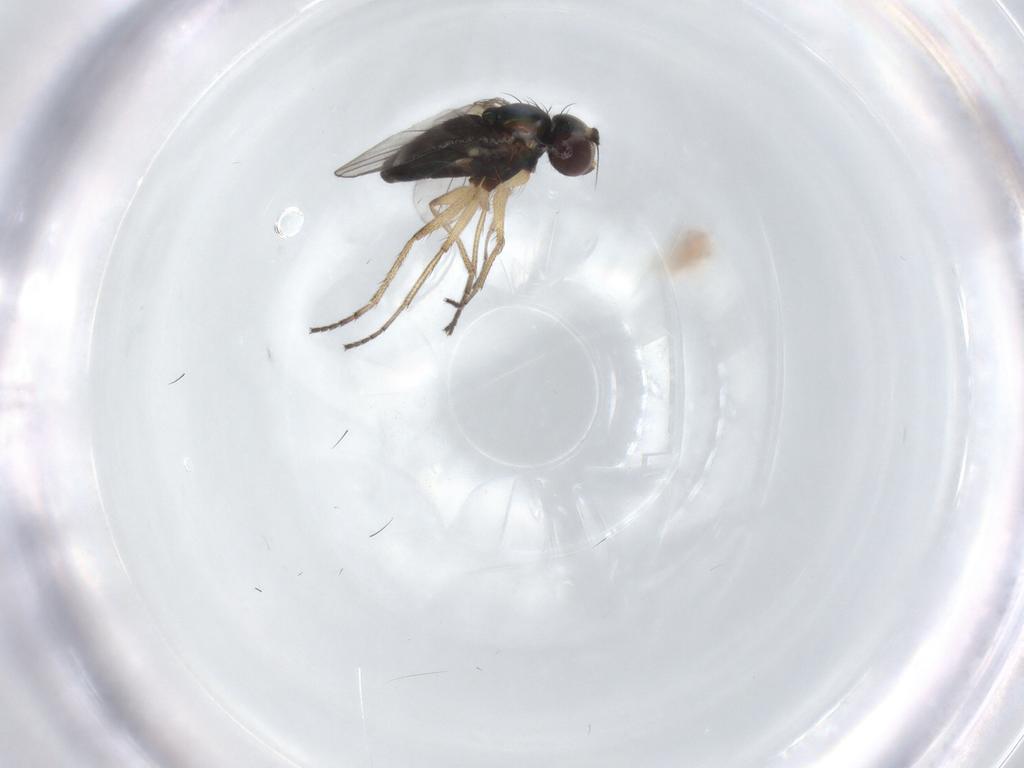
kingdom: Animalia
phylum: Arthropoda
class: Insecta
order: Diptera
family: Dolichopodidae
